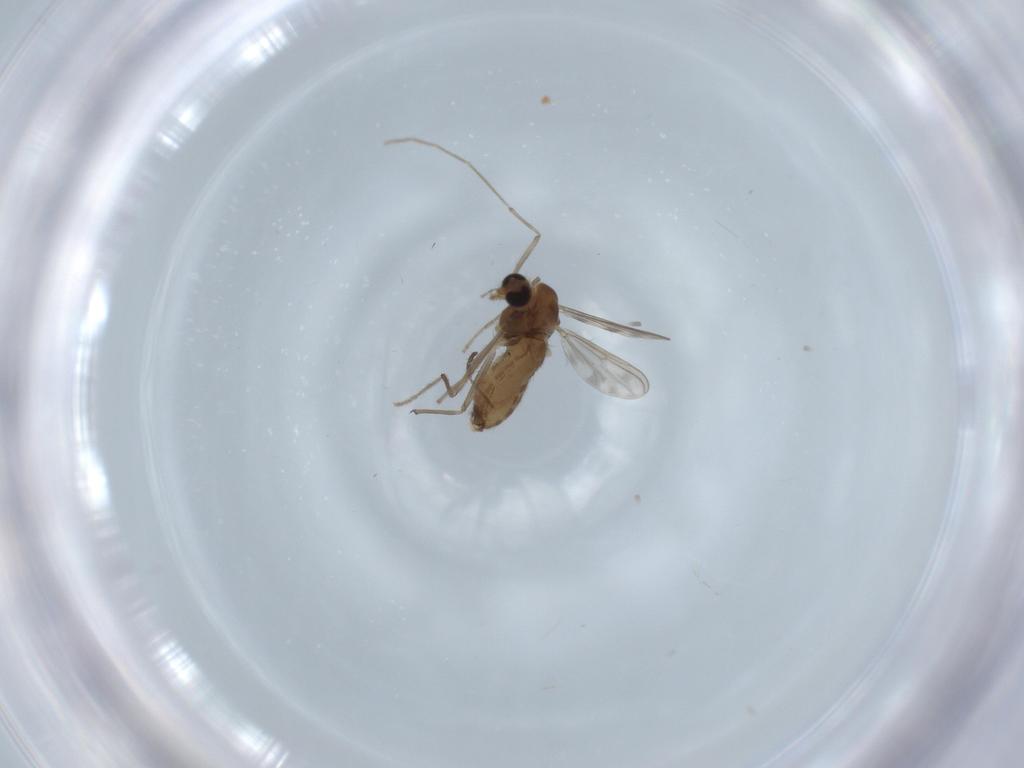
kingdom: Animalia
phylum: Arthropoda
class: Insecta
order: Diptera
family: Chironomidae
